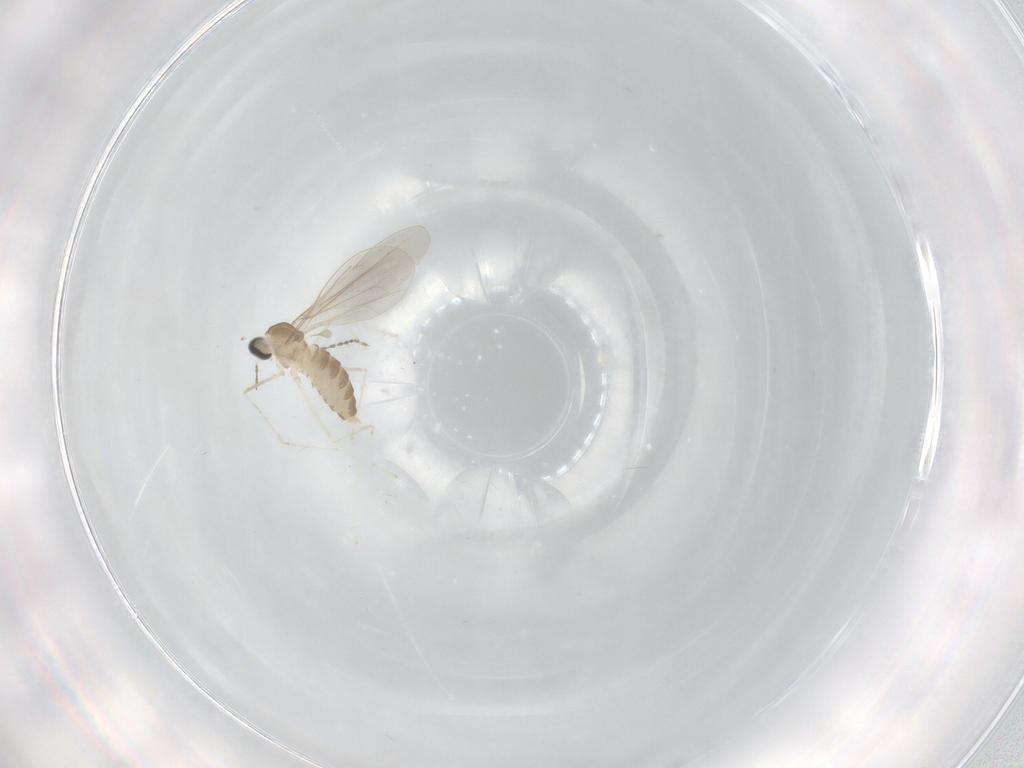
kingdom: Animalia
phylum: Arthropoda
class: Insecta
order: Diptera
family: Cecidomyiidae
